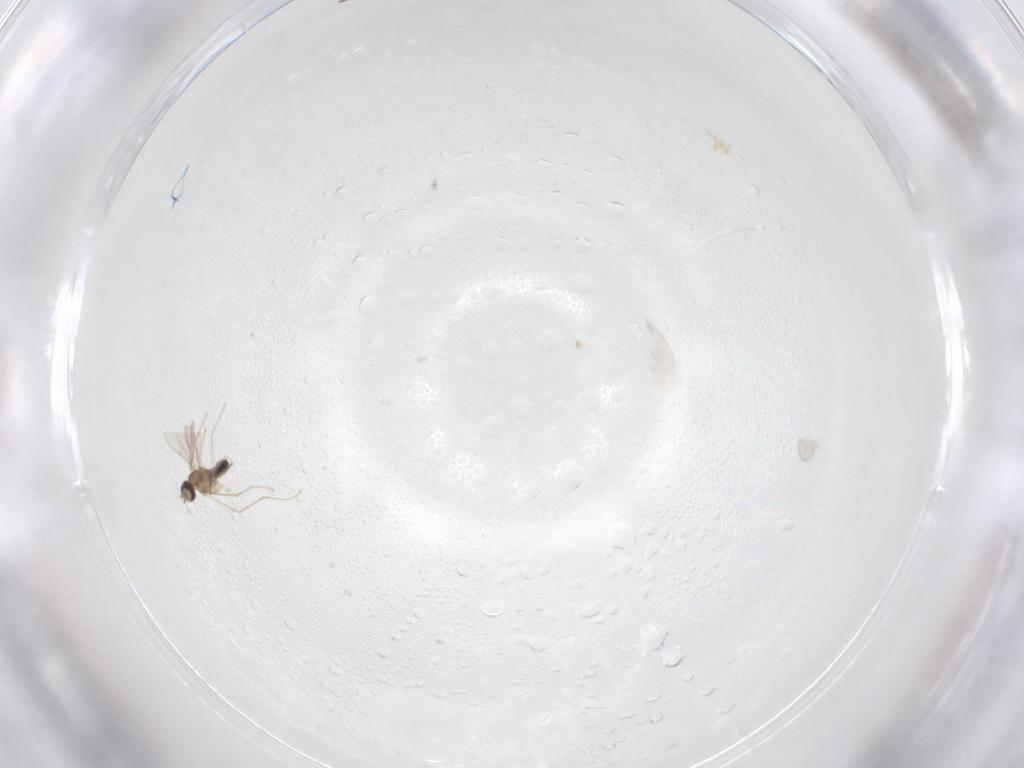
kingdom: Animalia
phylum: Arthropoda
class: Insecta
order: Diptera
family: Cecidomyiidae
